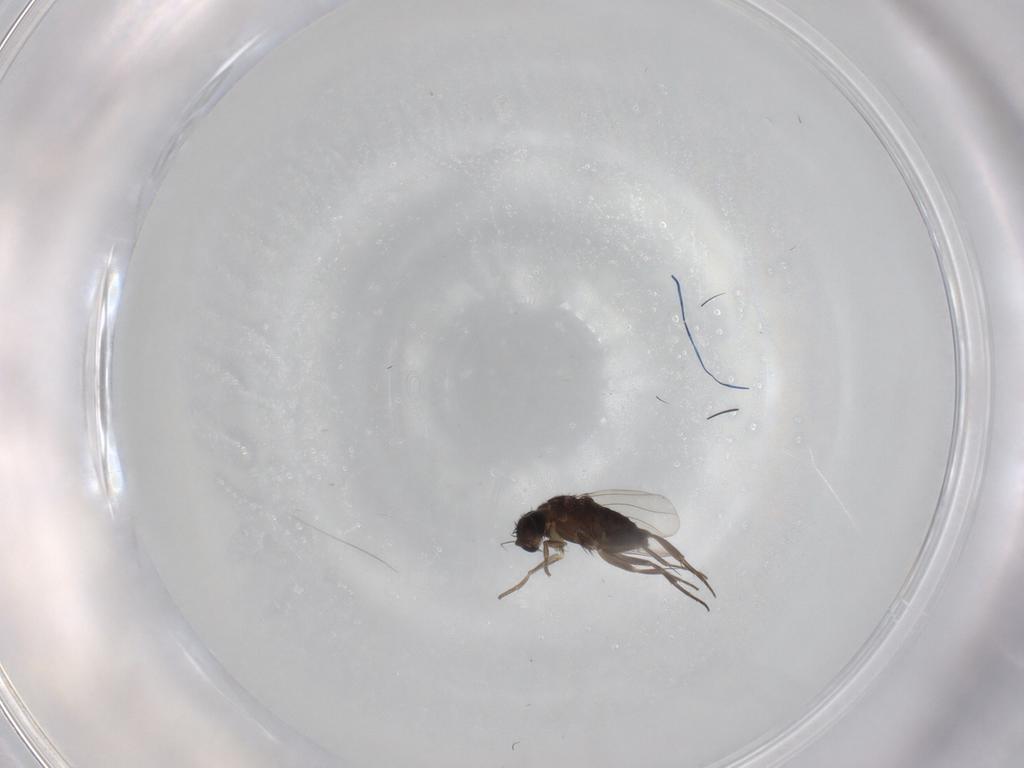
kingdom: Animalia
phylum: Arthropoda
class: Insecta
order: Diptera
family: Phoridae
